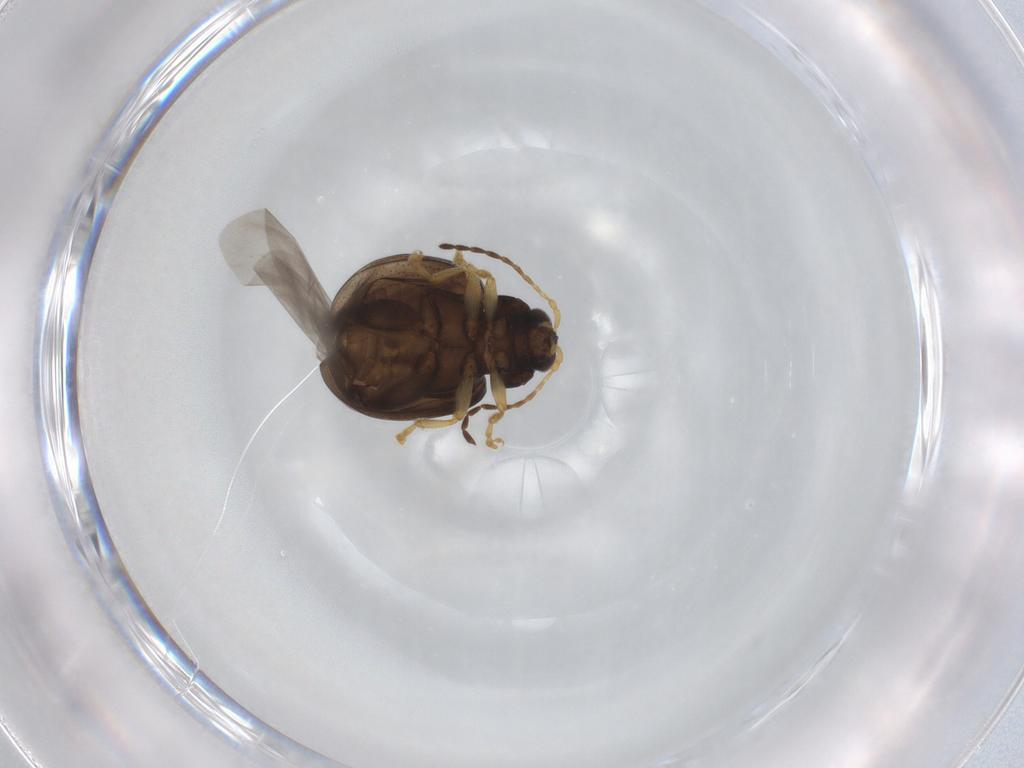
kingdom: Animalia
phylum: Arthropoda
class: Insecta
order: Coleoptera
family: Chrysomelidae
